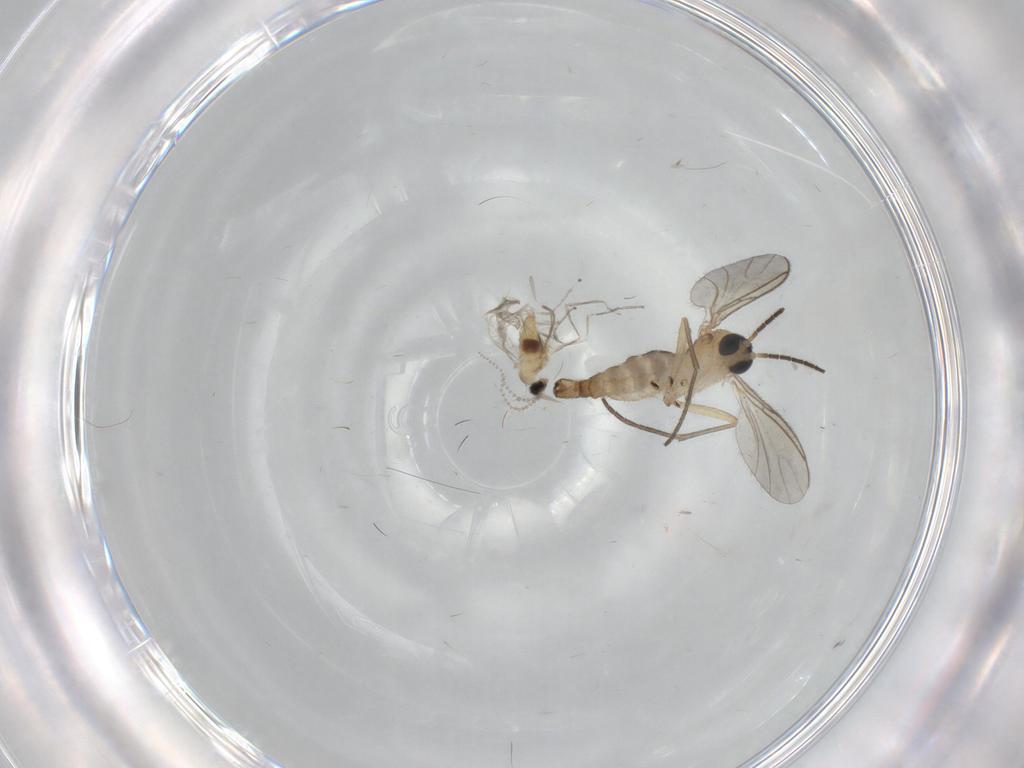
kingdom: Animalia
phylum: Arthropoda
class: Insecta
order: Diptera
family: Cecidomyiidae
